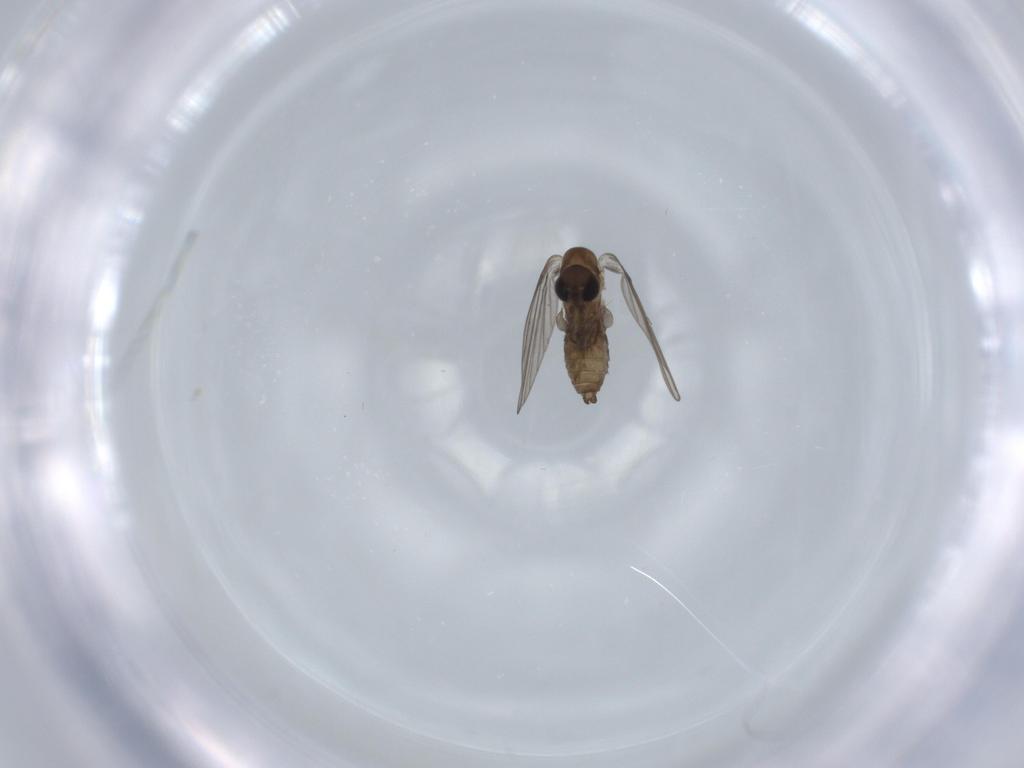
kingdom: Animalia
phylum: Arthropoda
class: Insecta
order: Diptera
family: Psychodidae
